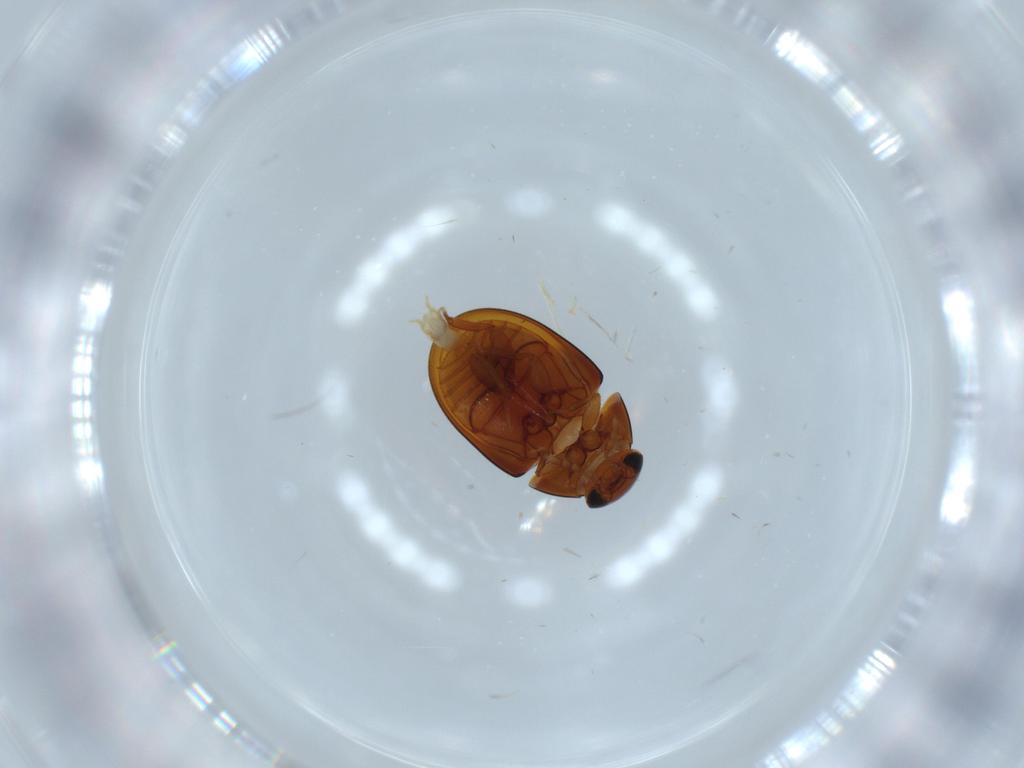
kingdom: Animalia
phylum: Arthropoda
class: Insecta
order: Coleoptera
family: Phalacridae
